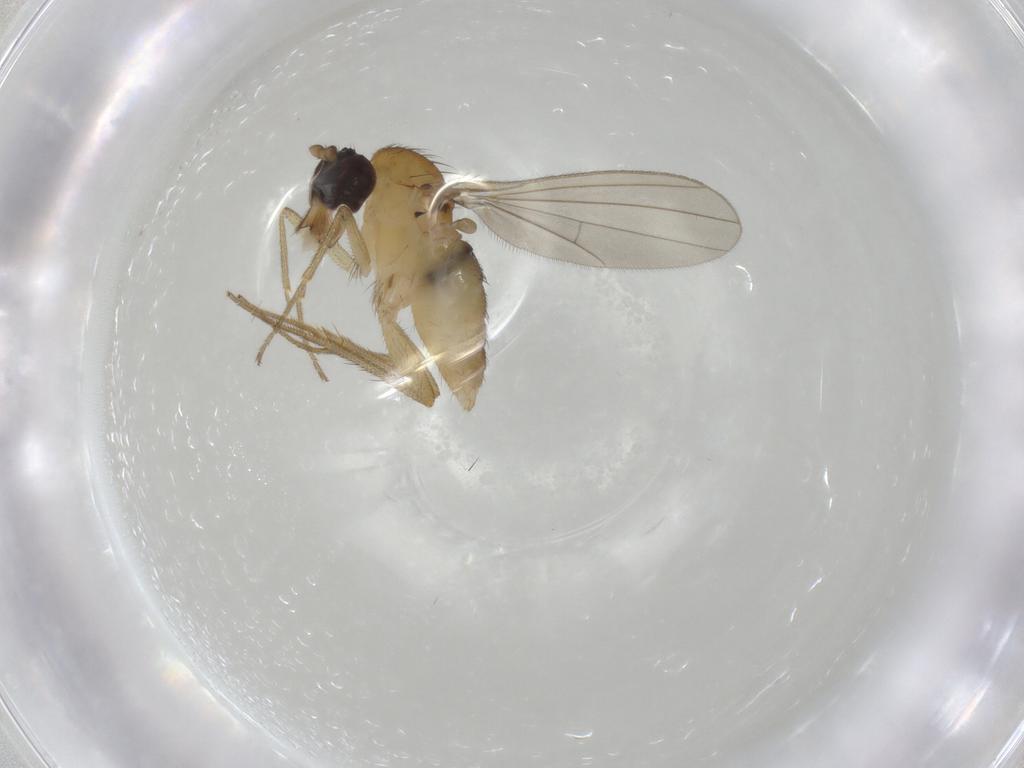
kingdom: Animalia
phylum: Arthropoda
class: Insecta
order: Diptera
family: Dolichopodidae
